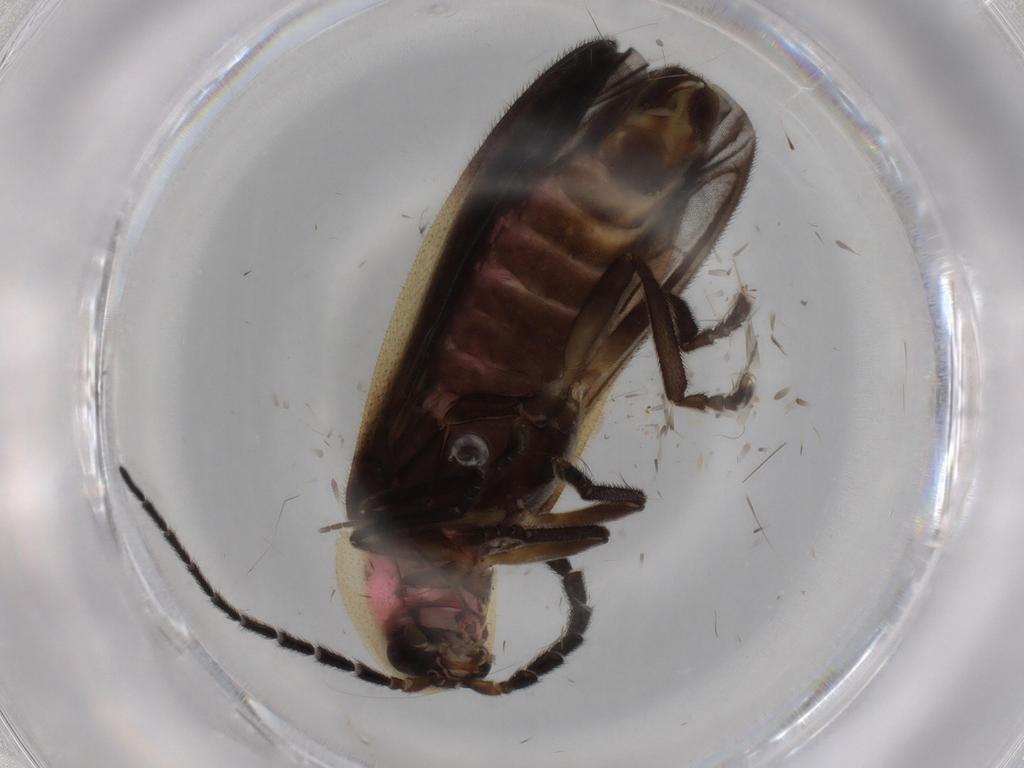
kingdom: Animalia
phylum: Arthropoda
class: Insecta
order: Coleoptera
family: Lampyridae
